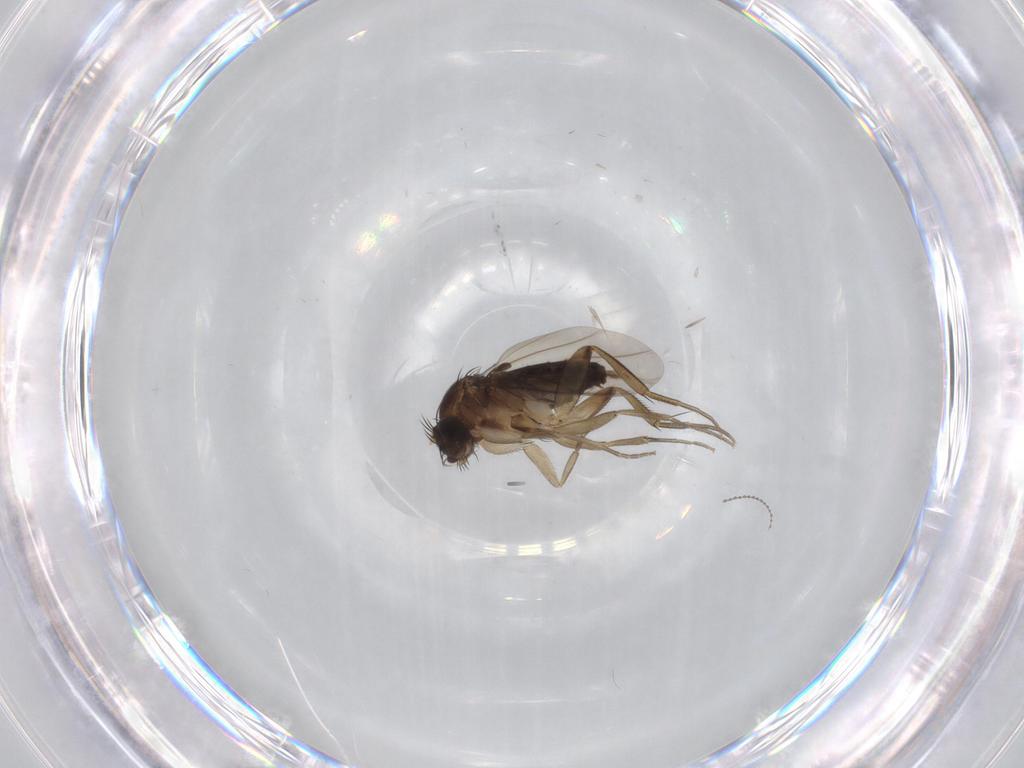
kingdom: Animalia
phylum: Arthropoda
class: Insecta
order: Diptera
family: Phoridae
